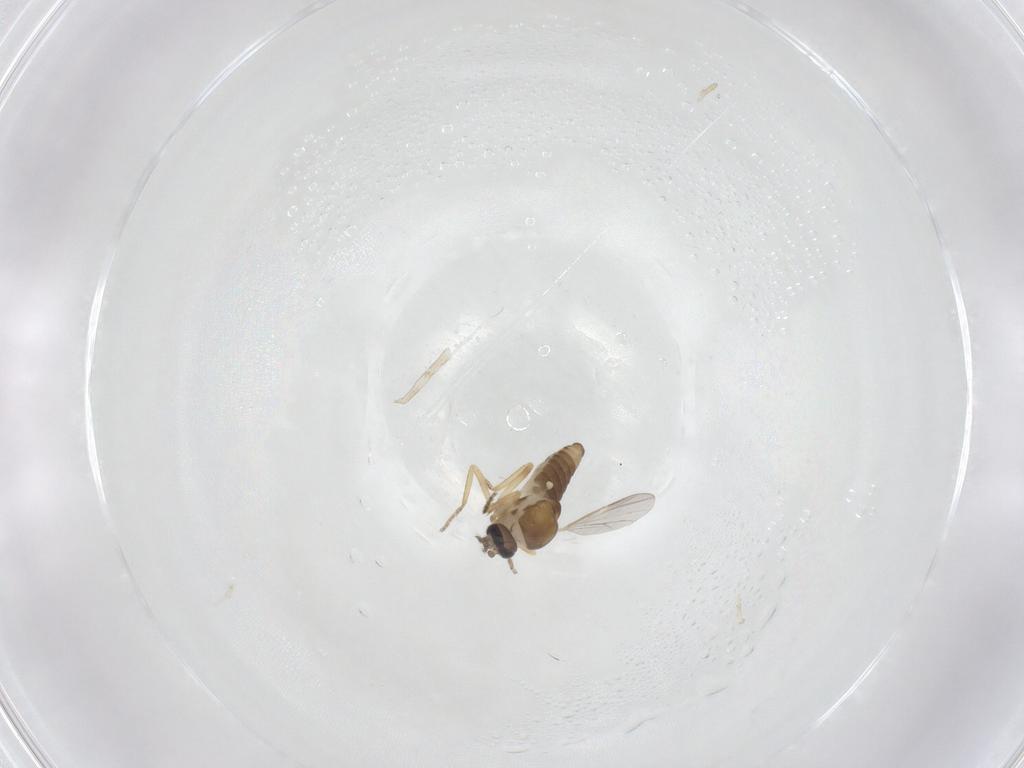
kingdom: Animalia
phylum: Arthropoda
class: Insecta
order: Diptera
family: Ceratopogonidae
